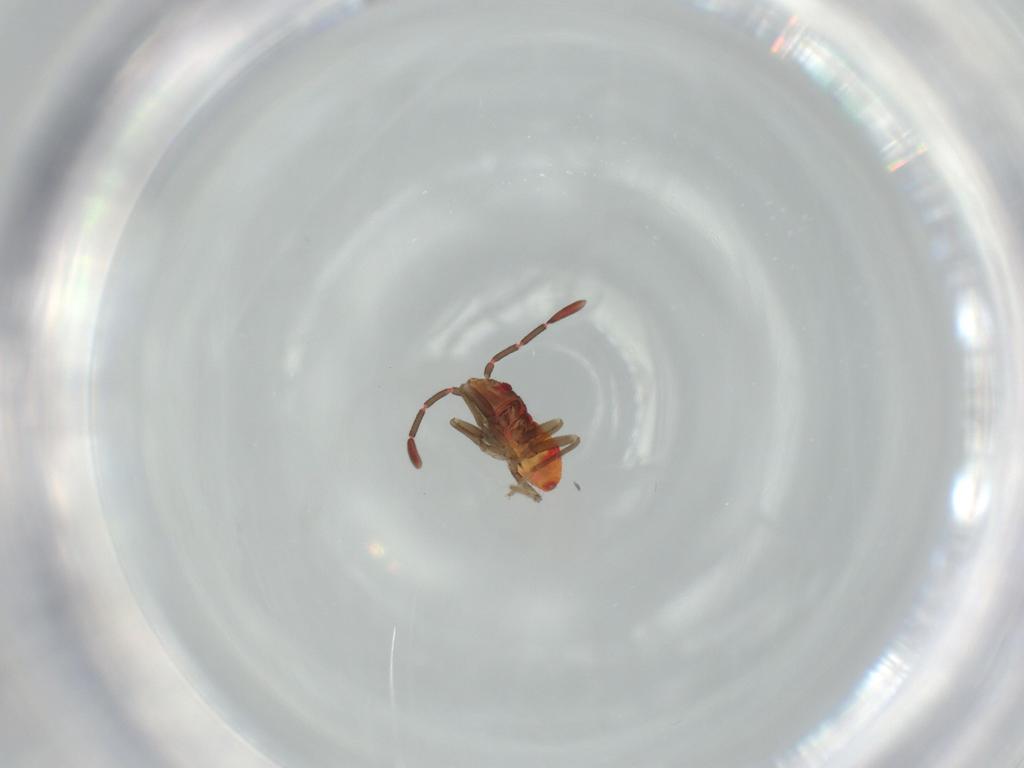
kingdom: Animalia
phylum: Arthropoda
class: Insecta
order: Hemiptera
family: Rhyparochromidae
